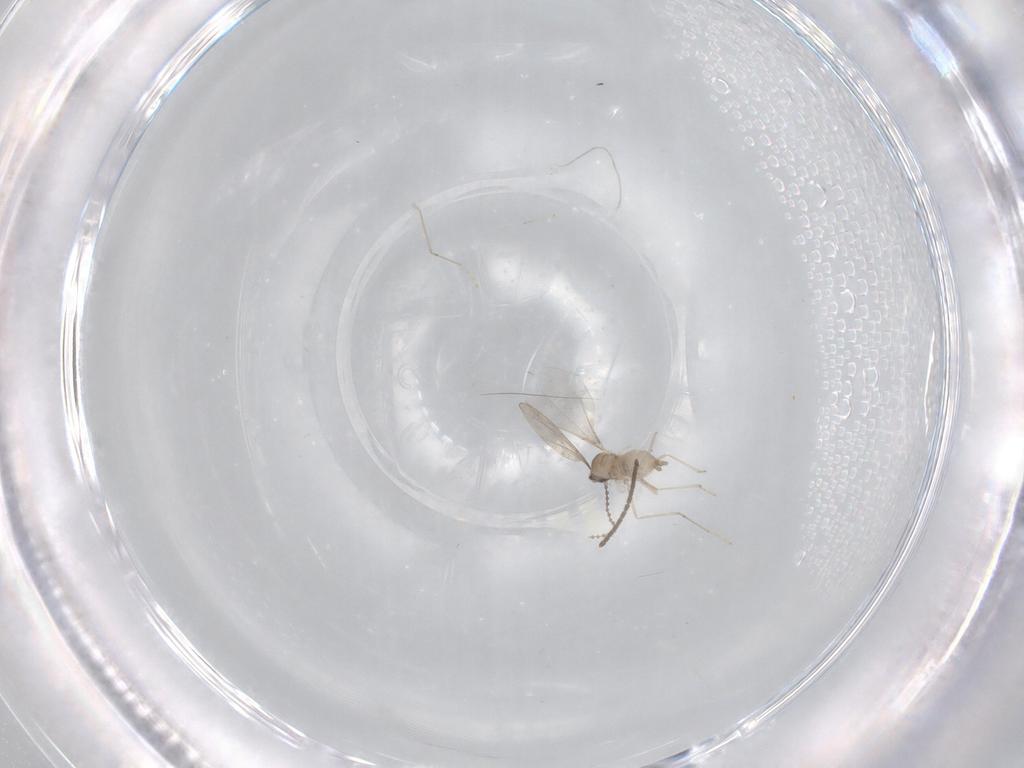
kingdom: Animalia
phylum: Arthropoda
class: Insecta
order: Diptera
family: Sciaridae
